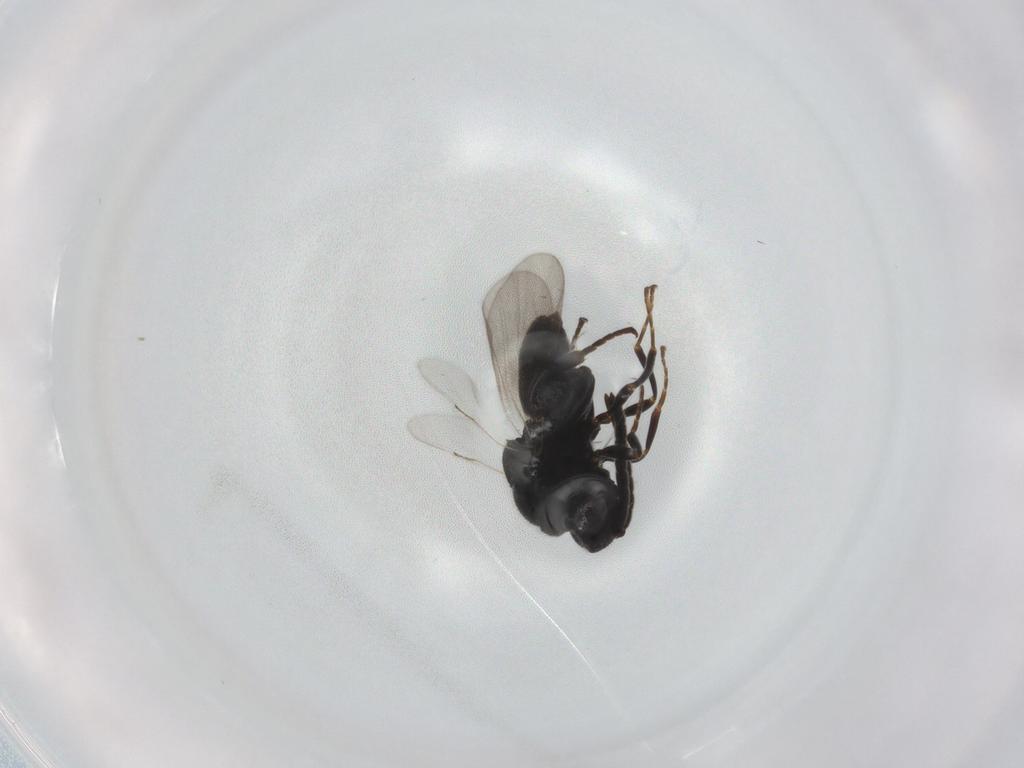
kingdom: Animalia
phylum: Arthropoda
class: Insecta
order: Hymenoptera
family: Chalcididae
